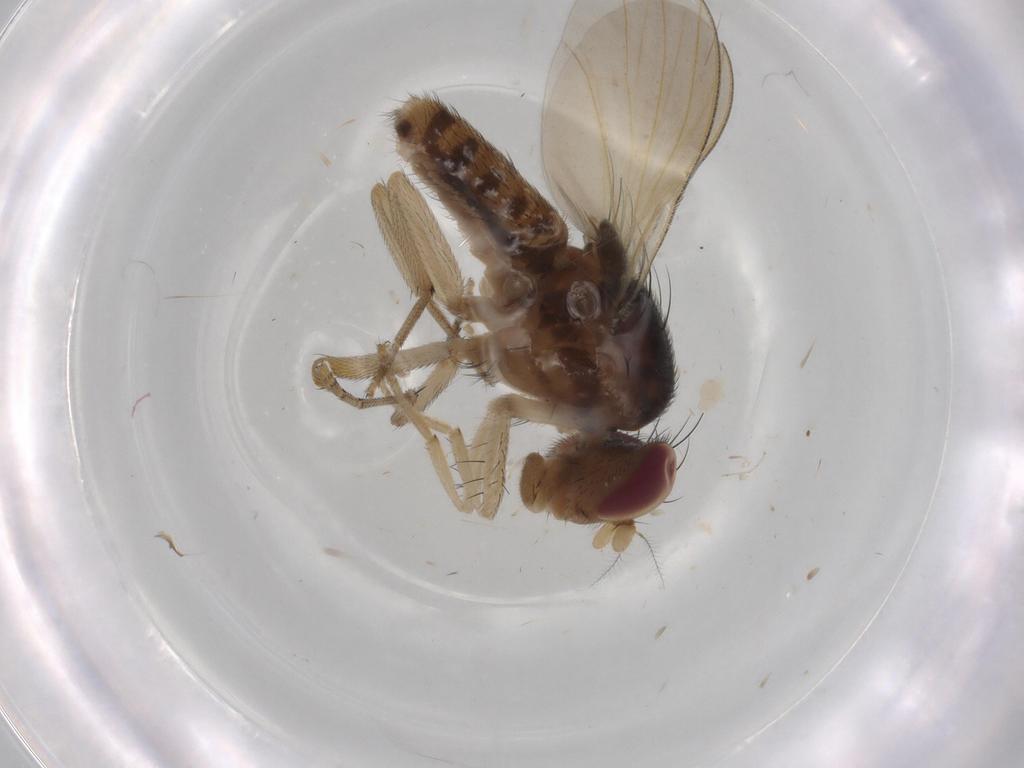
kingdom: Animalia
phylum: Arthropoda
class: Insecta
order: Diptera
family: Cecidomyiidae
